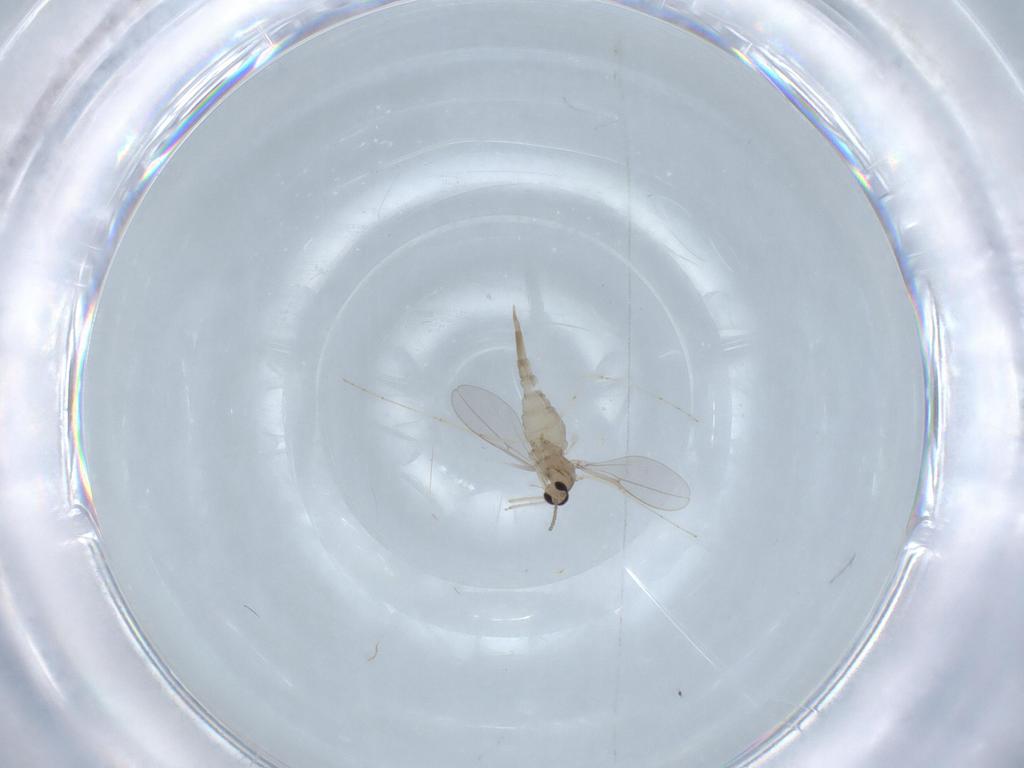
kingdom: Animalia
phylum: Arthropoda
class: Insecta
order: Diptera
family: Cecidomyiidae
